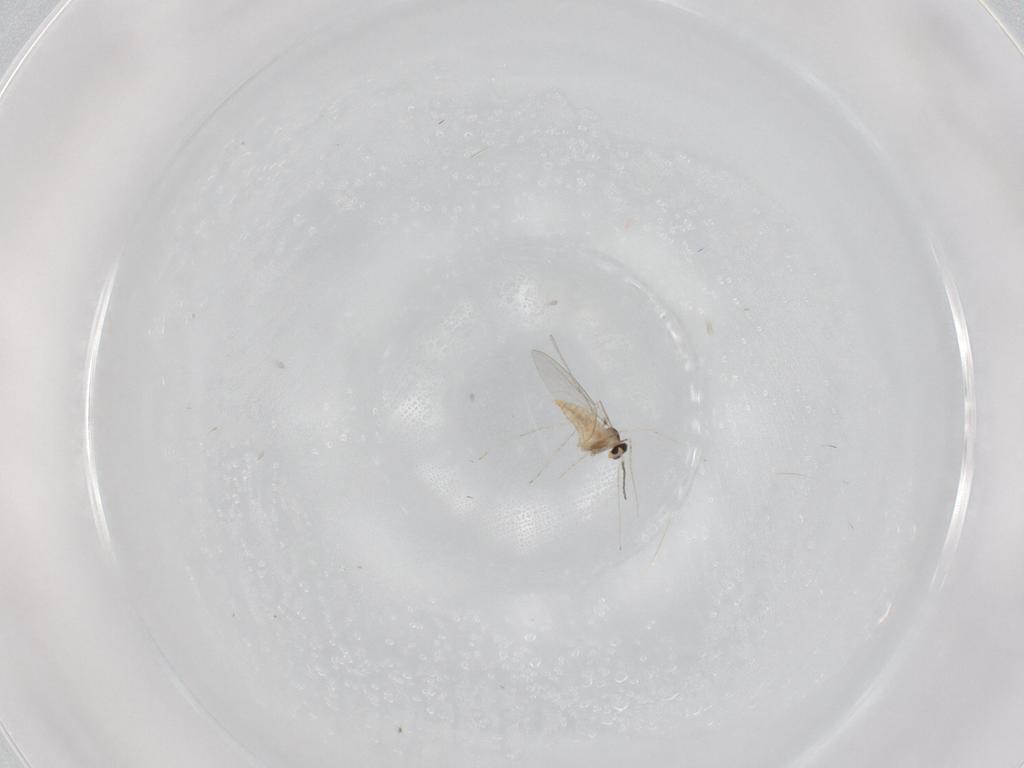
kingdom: Animalia
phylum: Arthropoda
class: Insecta
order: Diptera
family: Cecidomyiidae
